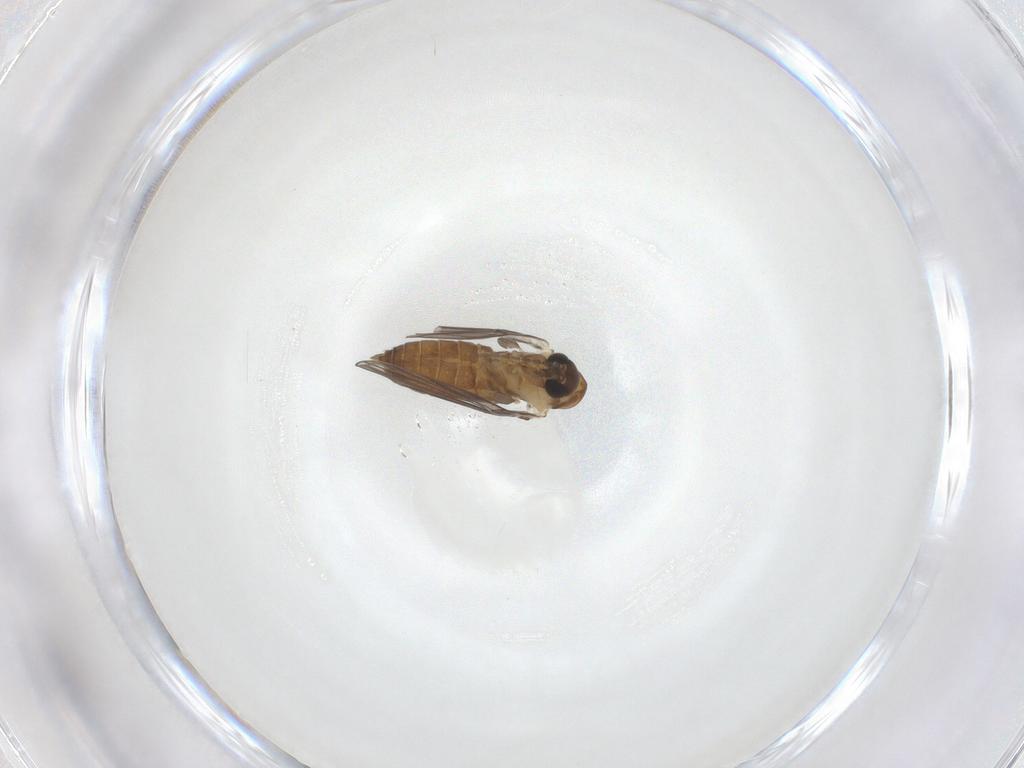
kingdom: Animalia
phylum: Arthropoda
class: Insecta
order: Diptera
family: Psychodidae
